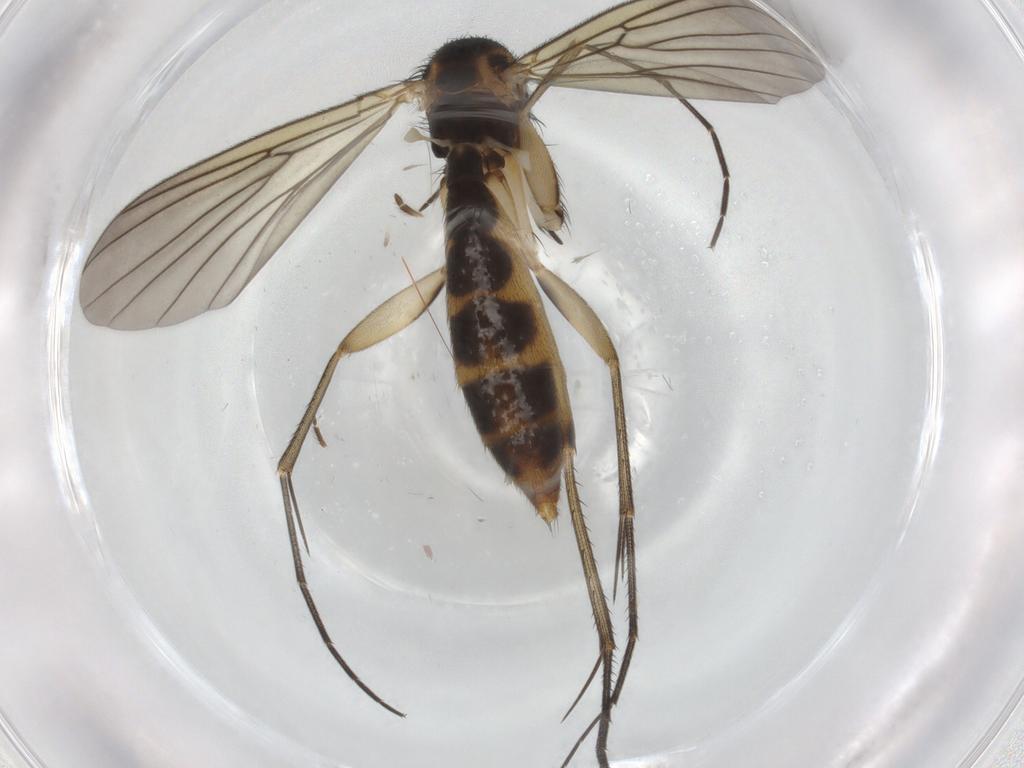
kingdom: Animalia
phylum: Arthropoda
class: Insecta
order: Diptera
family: Mycetophilidae
